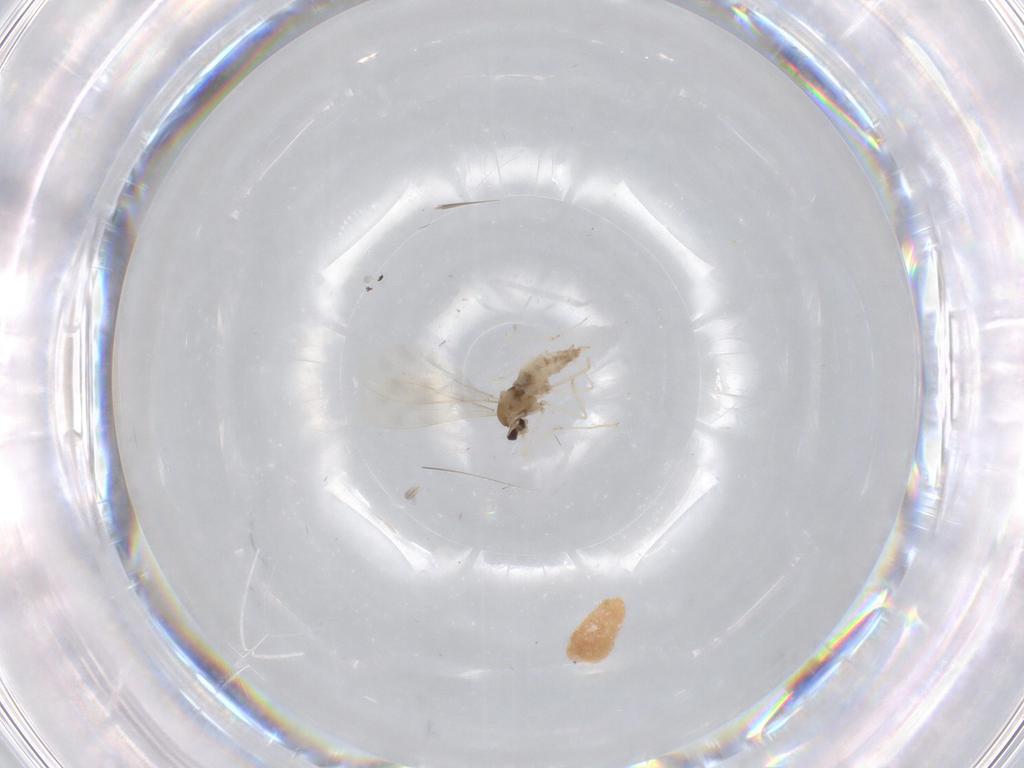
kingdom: Animalia
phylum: Arthropoda
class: Insecta
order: Diptera
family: Cecidomyiidae
